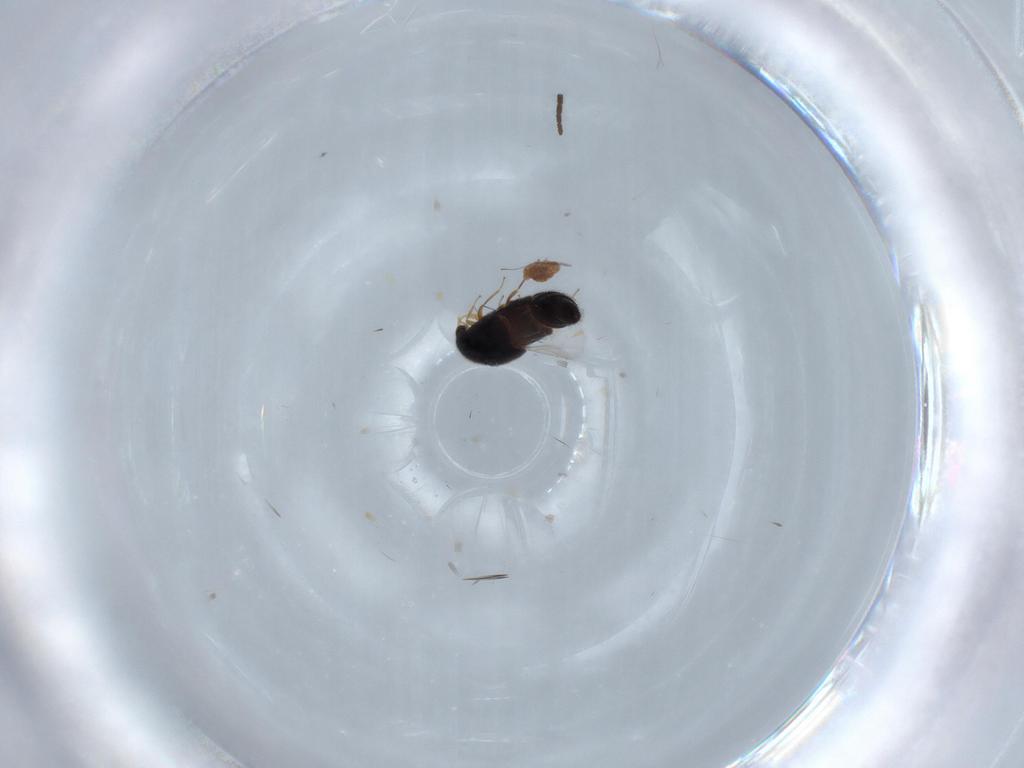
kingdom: Animalia
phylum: Arthropoda
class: Insecta
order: Coleoptera
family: Staphylinidae
